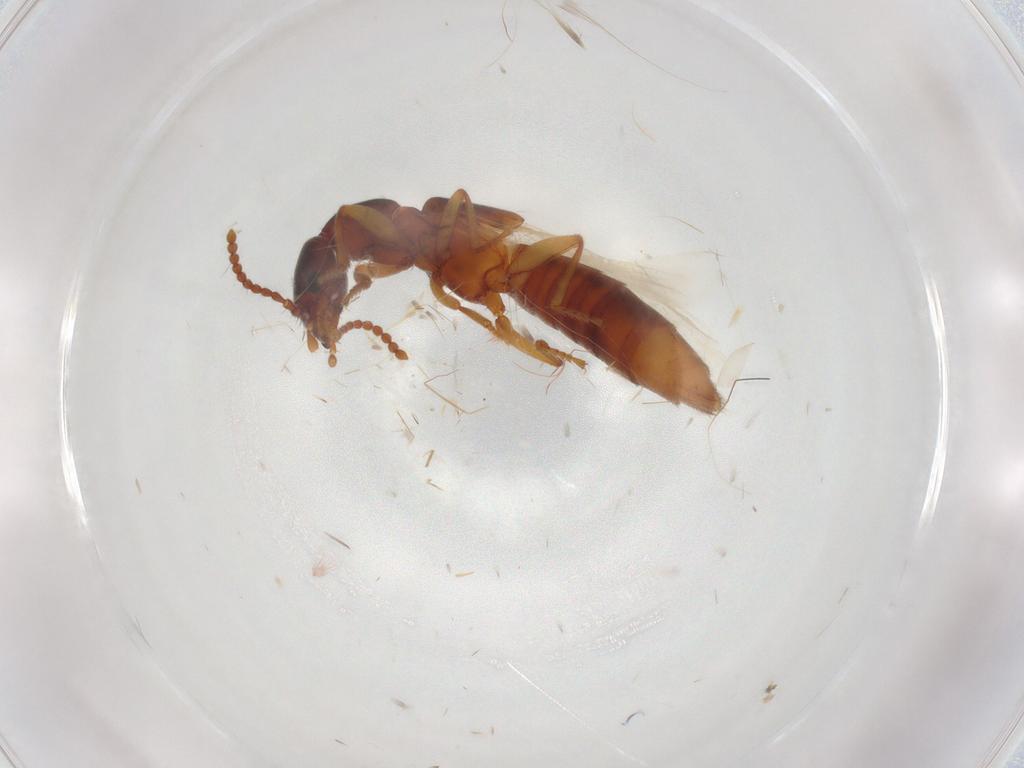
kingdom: Animalia
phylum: Arthropoda
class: Insecta
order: Coleoptera
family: Staphylinidae
